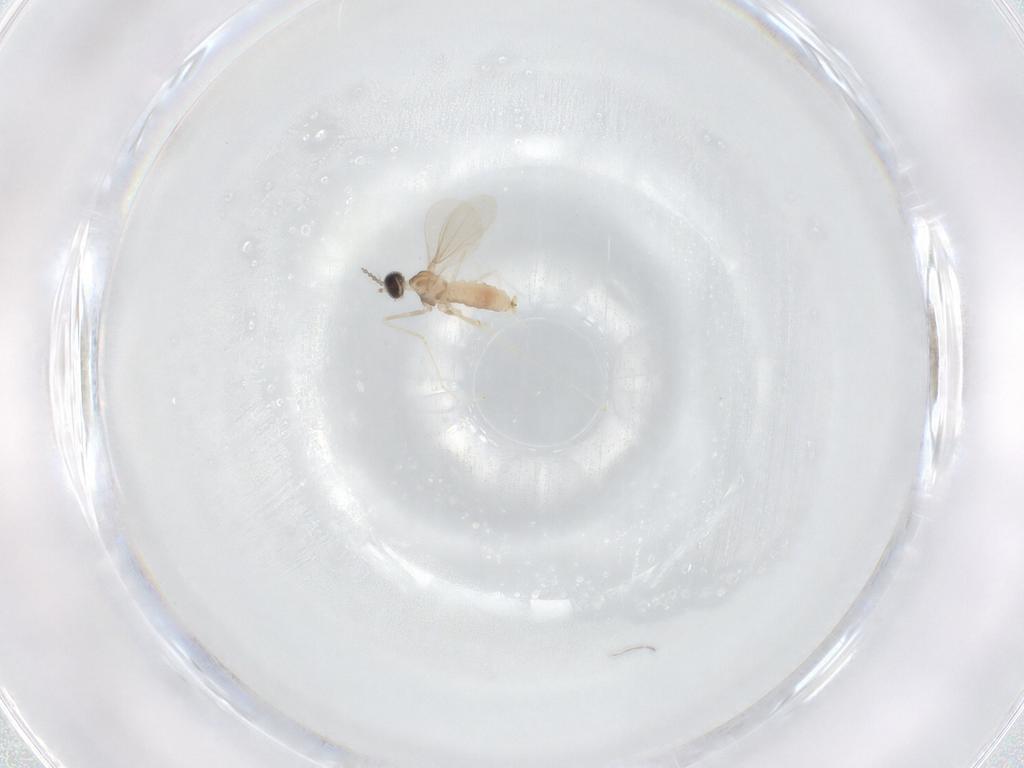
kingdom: Animalia
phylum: Arthropoda
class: Insecta
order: Diptera
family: Cecidomyiidae
